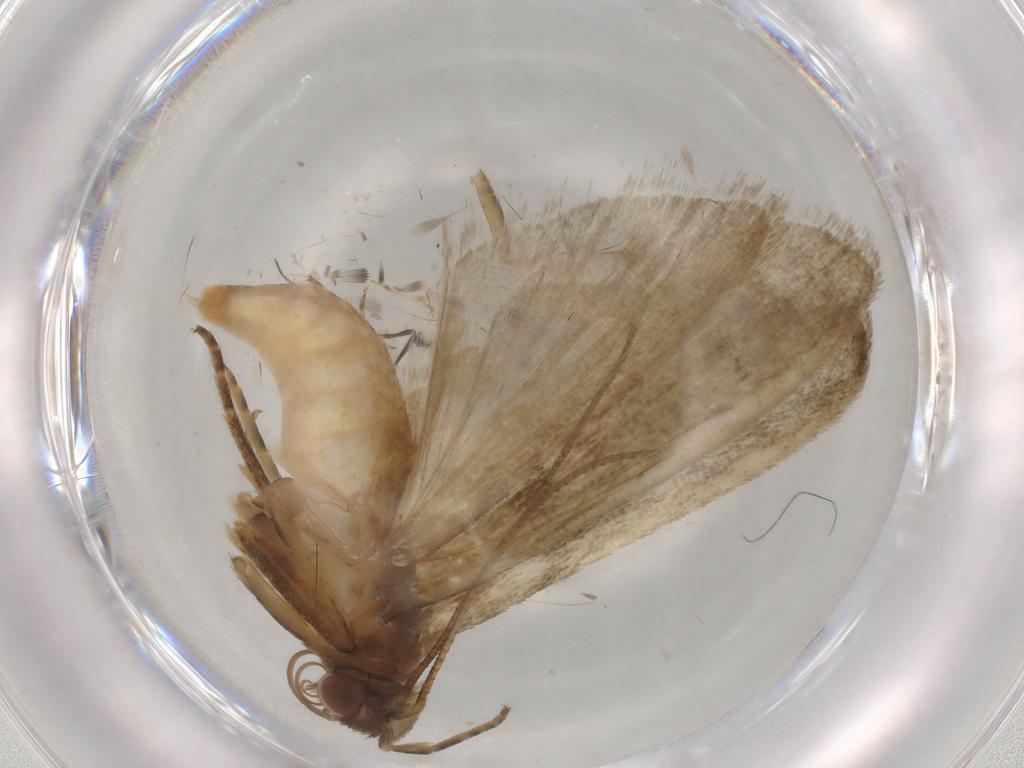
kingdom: Animalia
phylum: Arthropoda
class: Insecta
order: Lepidoptera
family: Noctuidae
